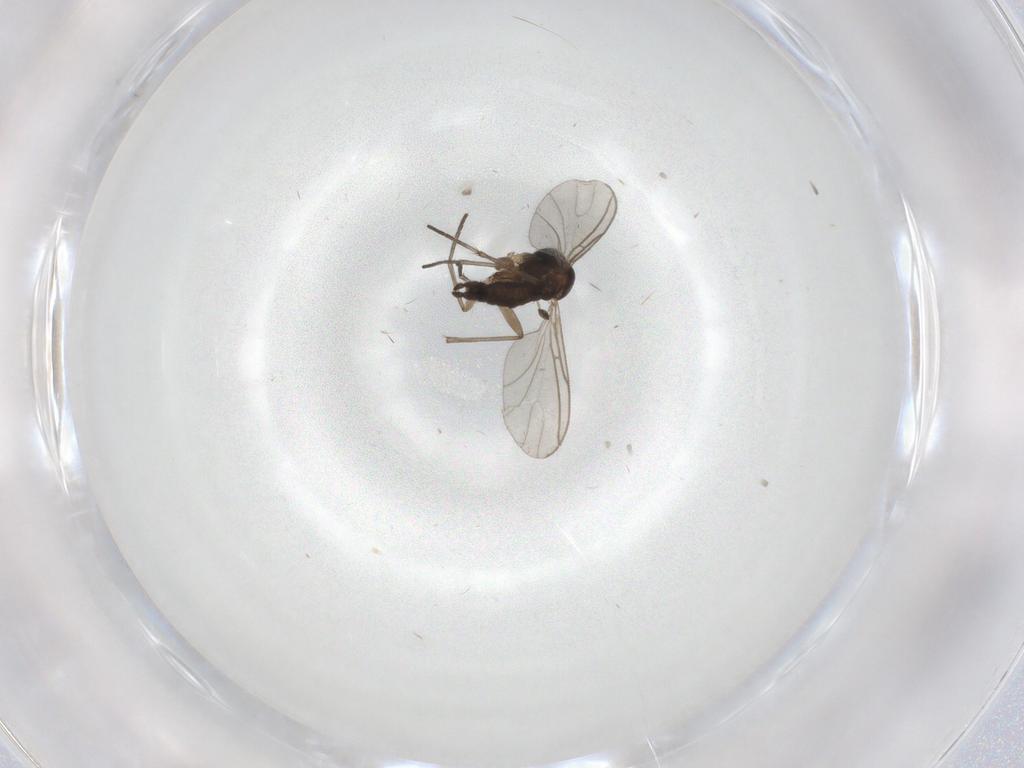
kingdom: Animalia
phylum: Arthropoda
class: Insecta
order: Diptera
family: Sciaridae
